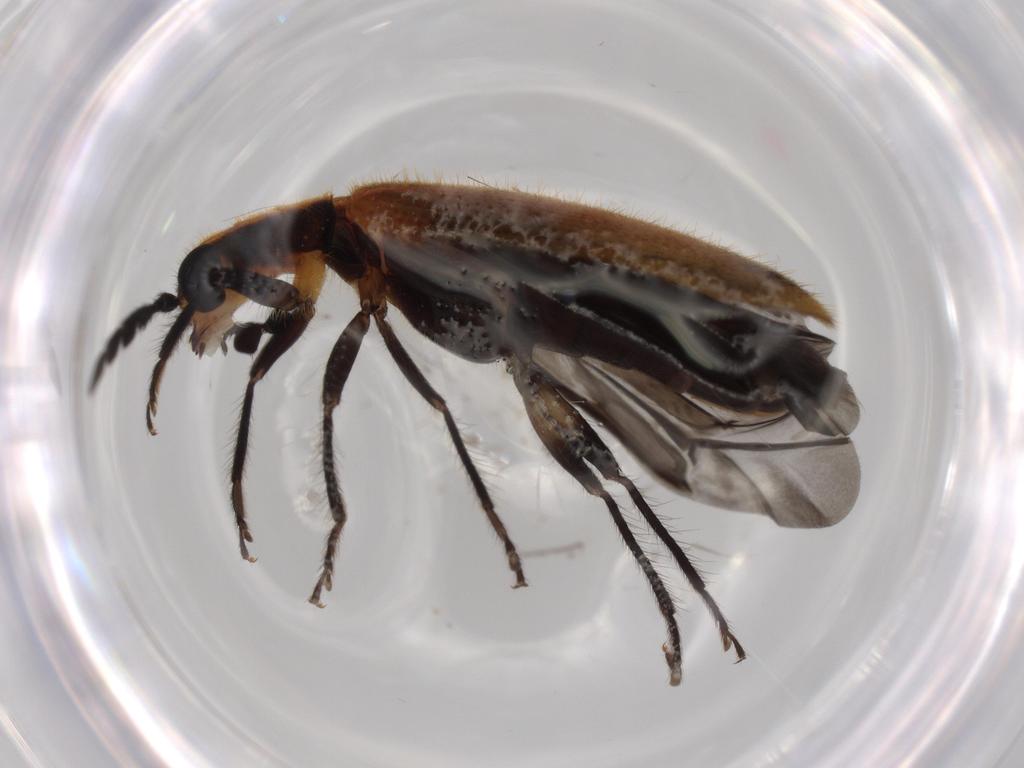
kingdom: Animalia
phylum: Arthropoda
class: Insecta
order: Coleoptera
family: Cleridae
